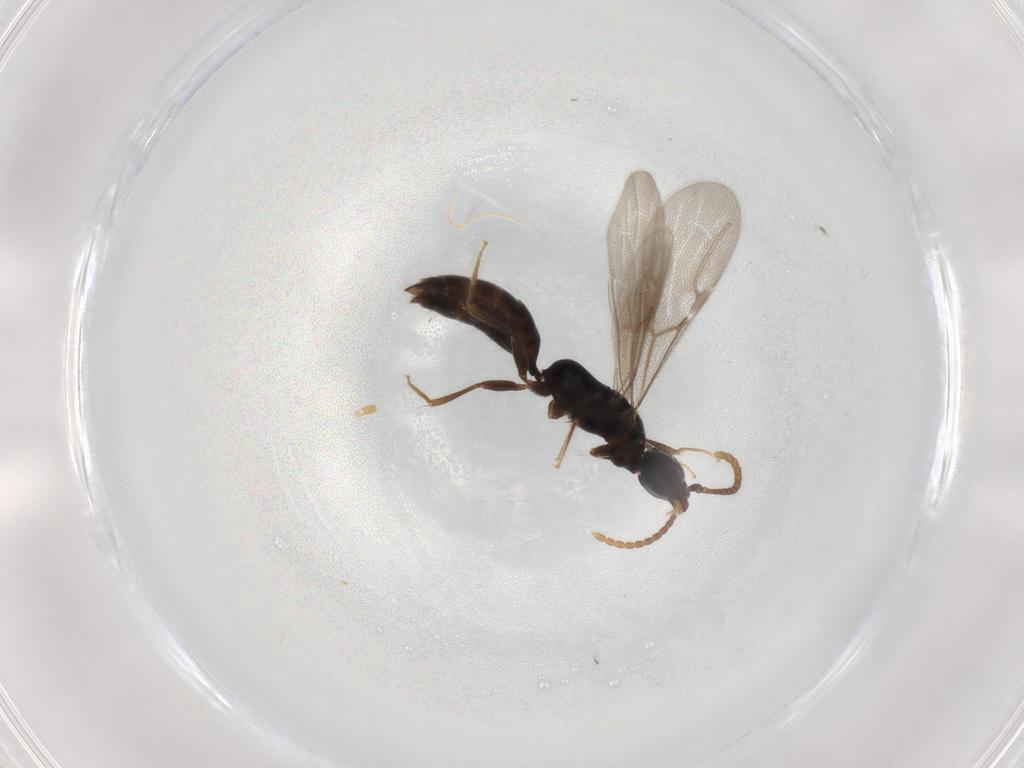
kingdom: Animalia
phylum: Arthropoda
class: Insecta
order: Hymenoptera
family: Bethylidae
